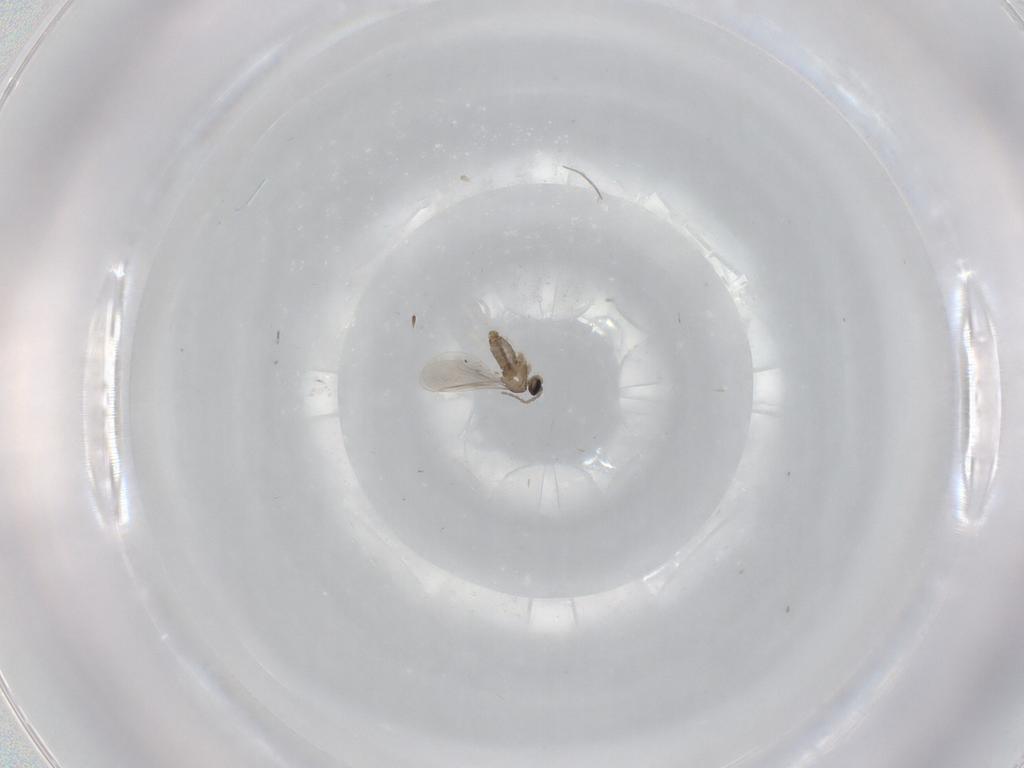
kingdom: Animalia
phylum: Arthropoda
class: Insecta
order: Diptera
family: Cecidomyiidae
